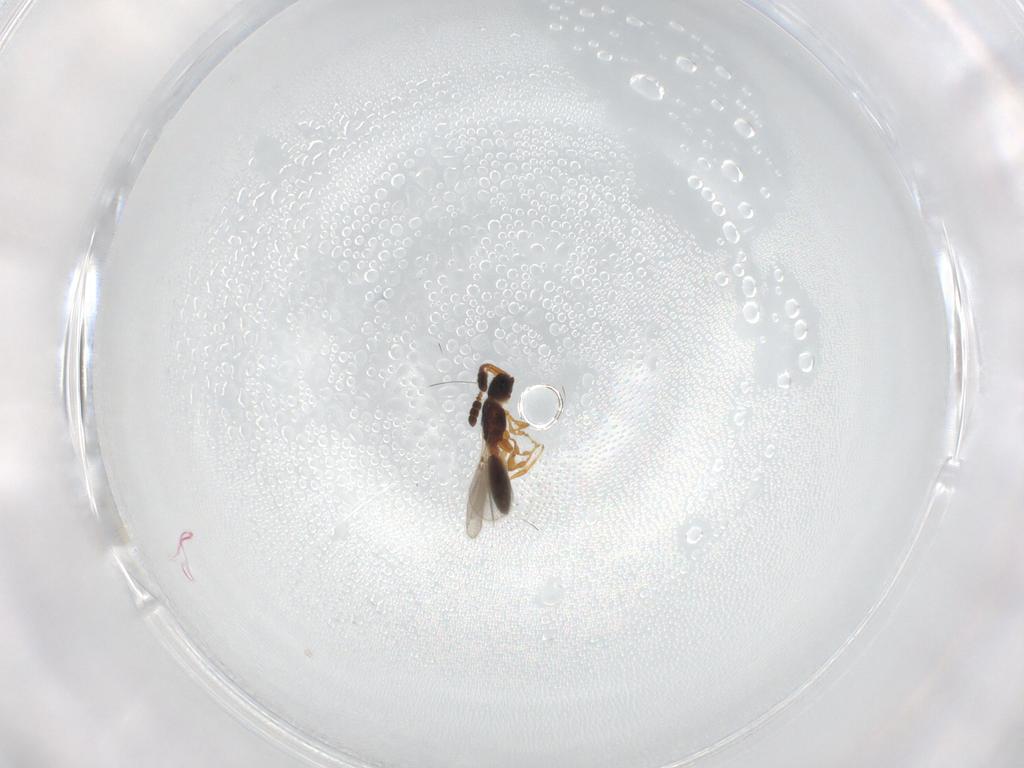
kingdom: Animalia
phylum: Arthropoda
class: Insecta
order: Hymenoptera
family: Diapriidae
